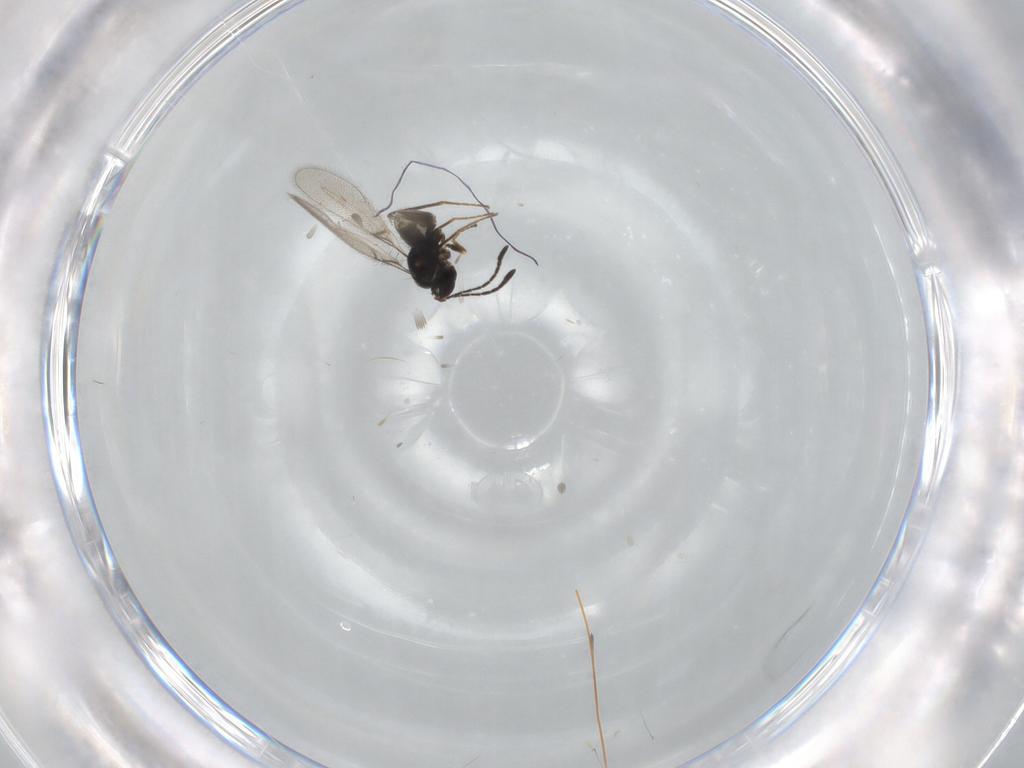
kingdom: Animalia
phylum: Arthropoda
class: Insecta
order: Hymenoptera
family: Mymaridae
